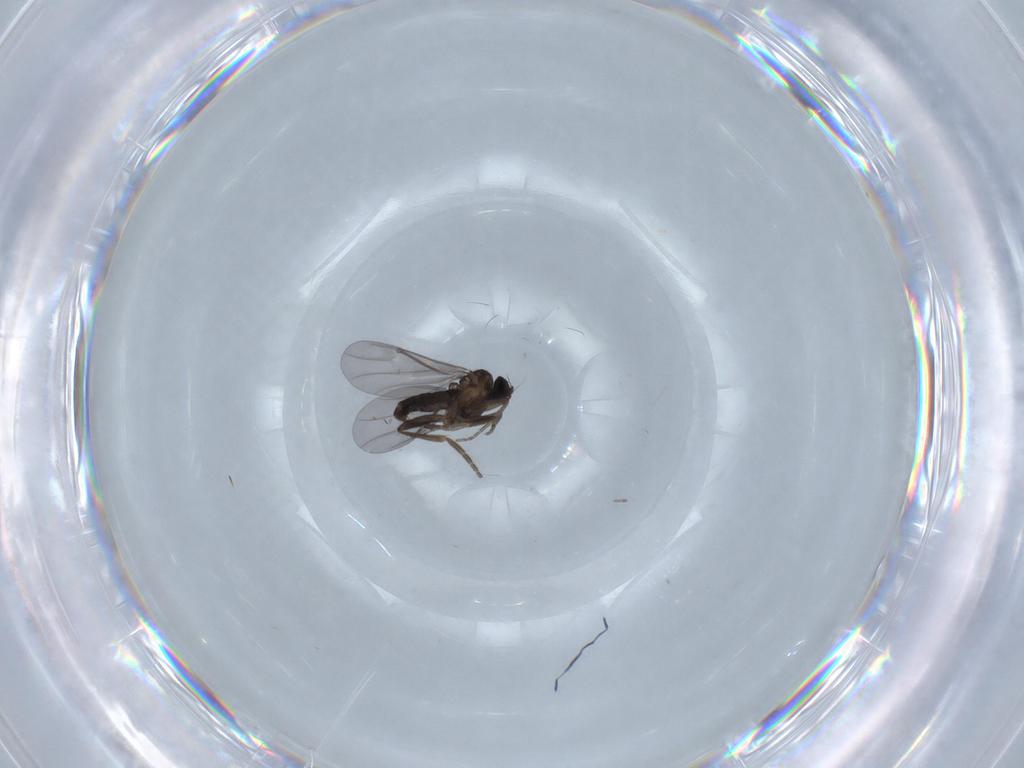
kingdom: Animalia
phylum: Arthropoda
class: Insecta
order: Diptera
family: Phoridae
